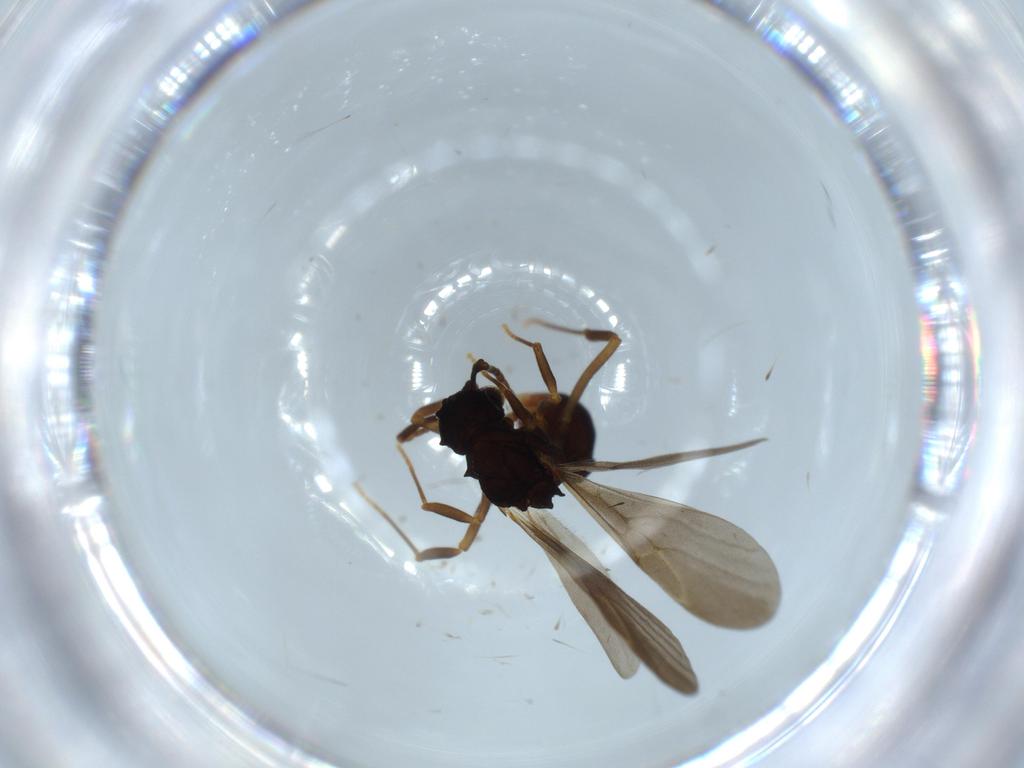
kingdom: Animalia
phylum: Arthropoda
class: Insecta
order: Hymenoptera
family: Formicidae
